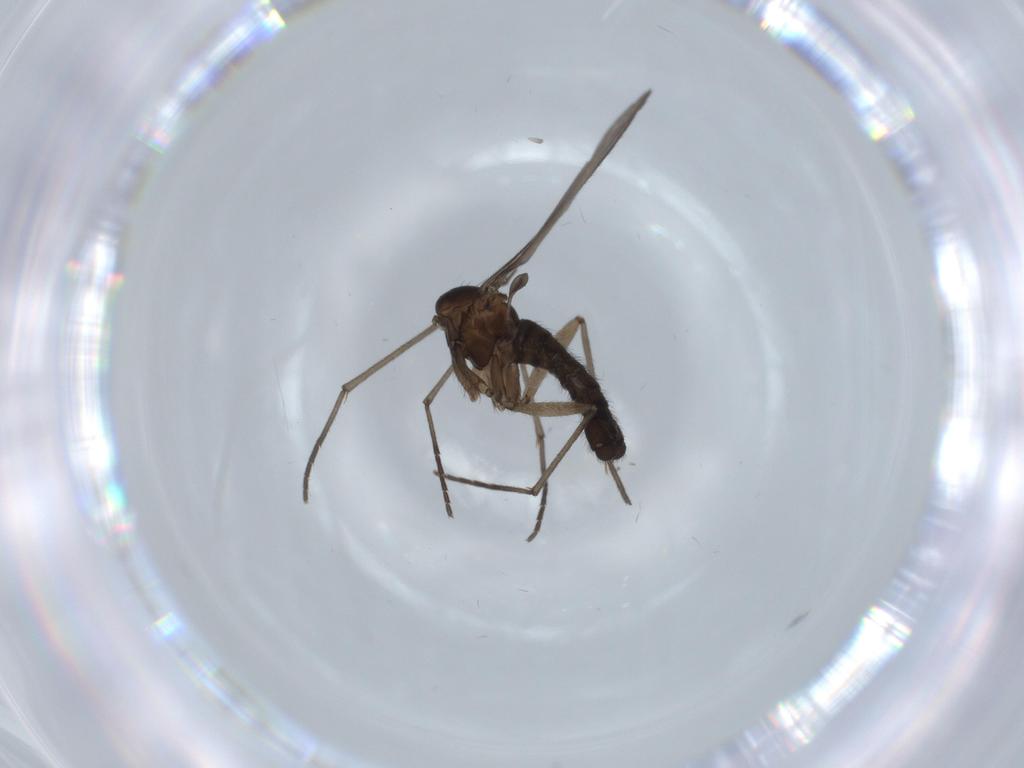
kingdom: Animalia
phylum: Arthropoda
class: Insecta
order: Diptera
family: Sciaridae
